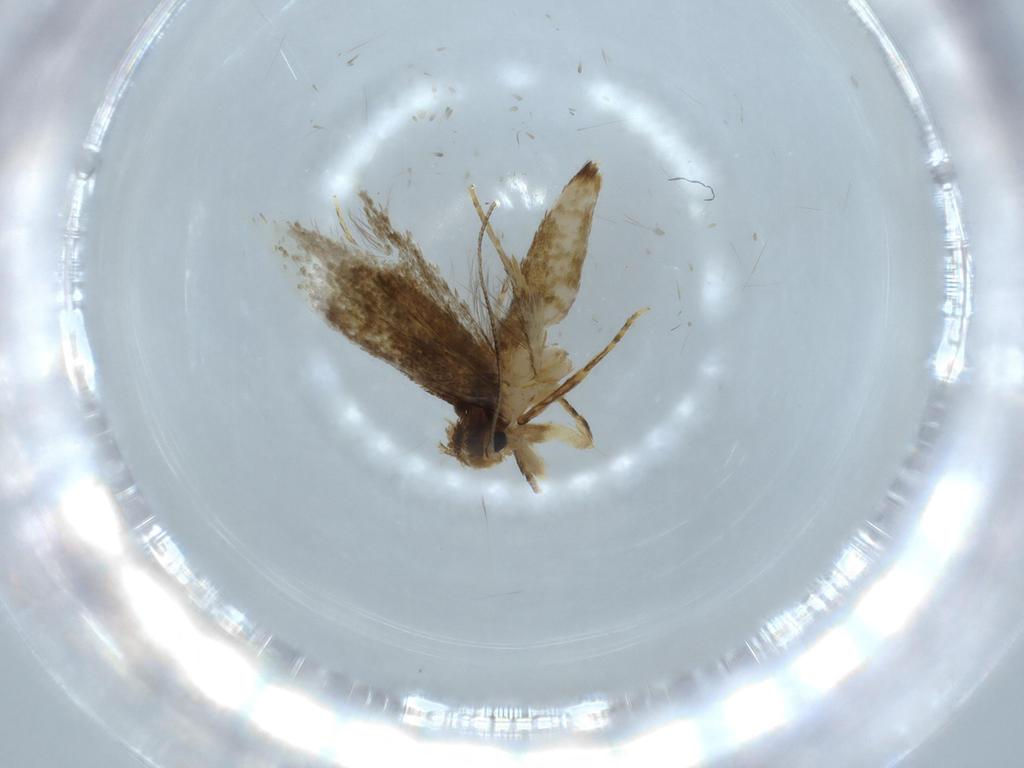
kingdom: Animalia
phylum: Arthropoda
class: Insecta
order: Lepidoptera
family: Tineidae
